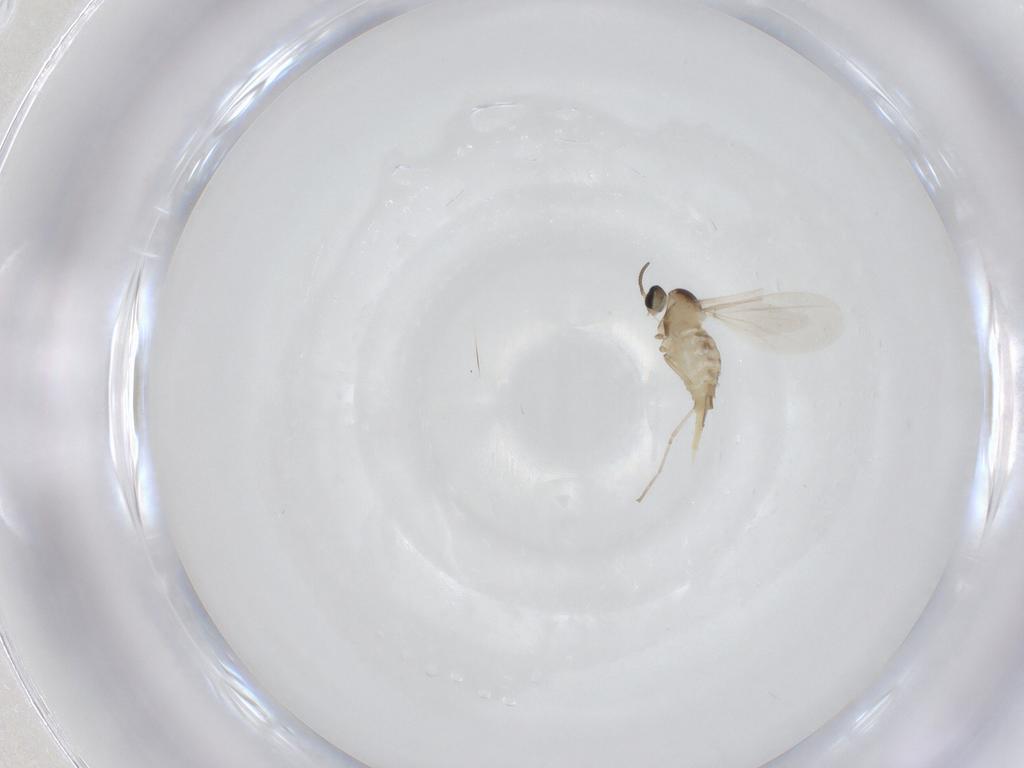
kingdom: Animalia
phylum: Arthropoda
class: Insecta
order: Diptera
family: Cecidomyiidae
